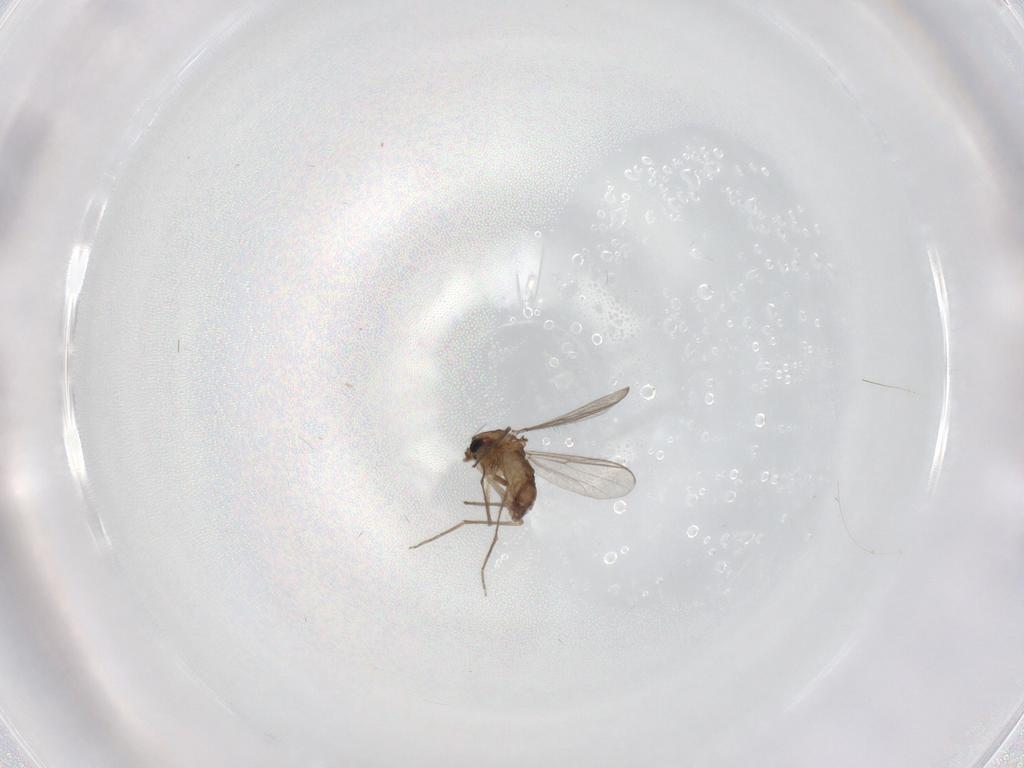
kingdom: Animalia
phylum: Arthropoda
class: Insecta
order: Diptera
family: Chironomidae
